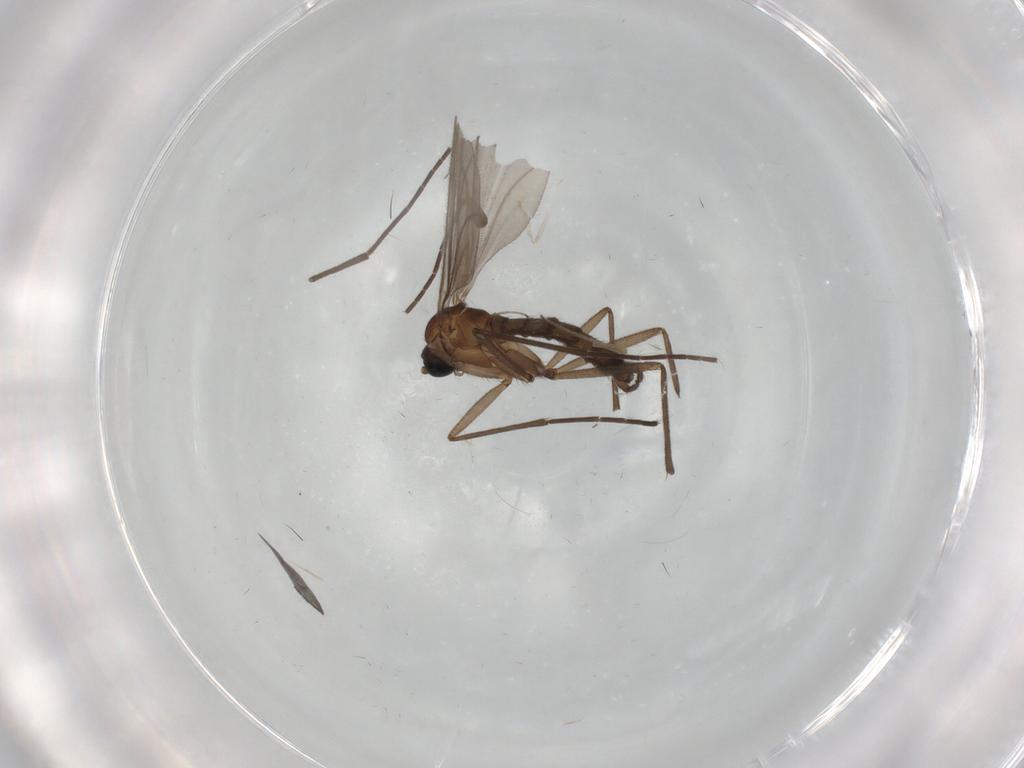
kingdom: Animalia
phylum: Arthropoda
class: Insecta
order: Diptera
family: Sciaridae
